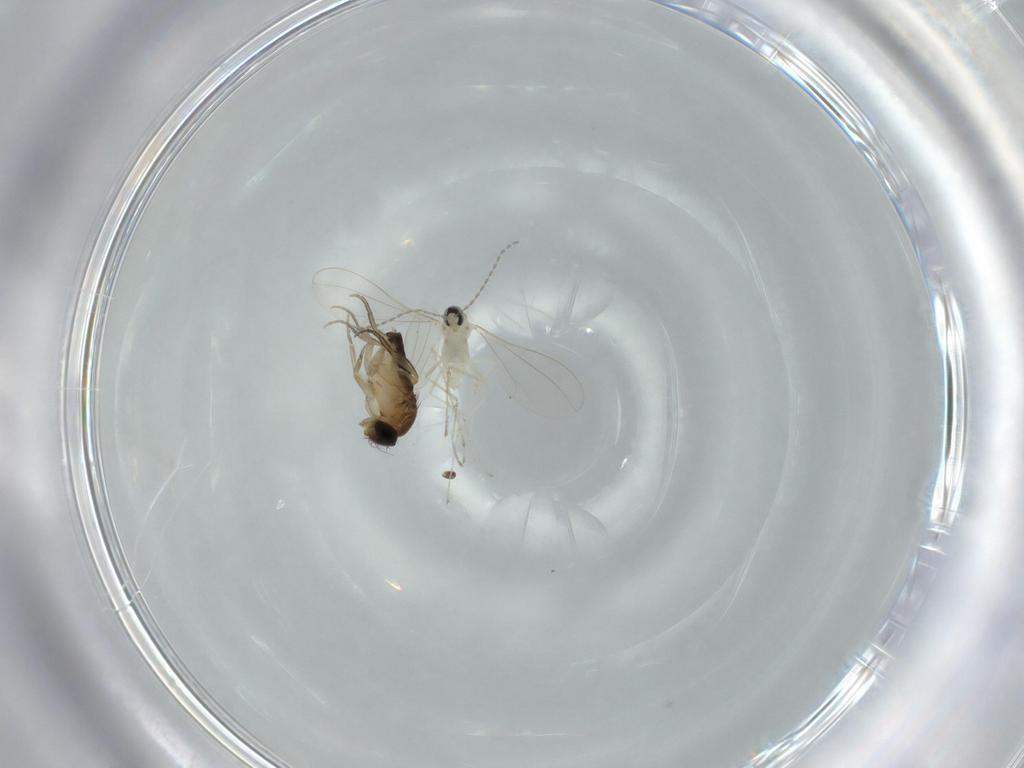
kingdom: Animalia
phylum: Arthropoda
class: Insecta
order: Diptera
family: Phoridae
